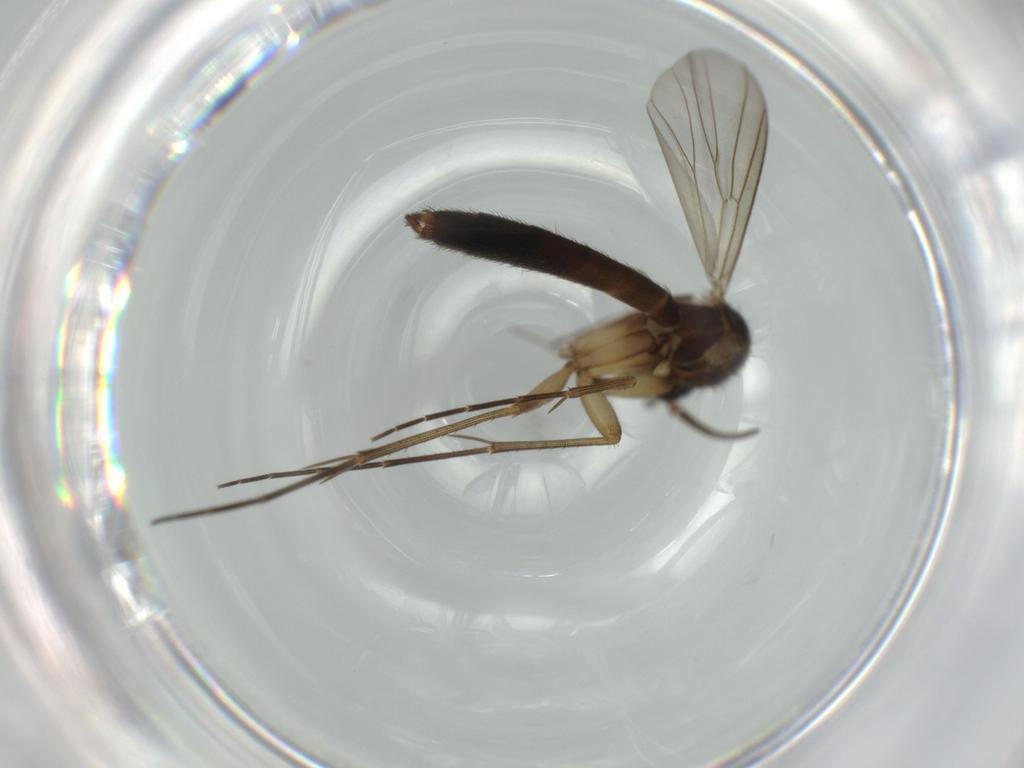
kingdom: Animalia
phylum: Arthropoda
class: Insecta
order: Diptera
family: Mycetophilidae
